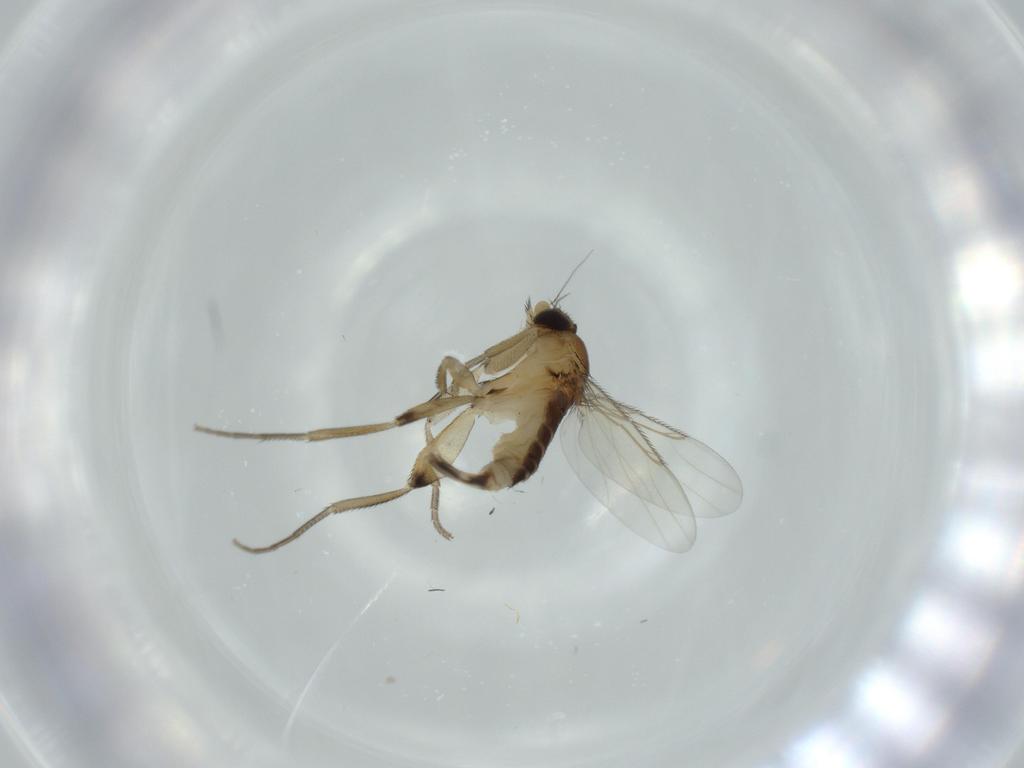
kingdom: Animalia
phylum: Arthropoda
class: Insecta
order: Diptera
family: Phoridae
